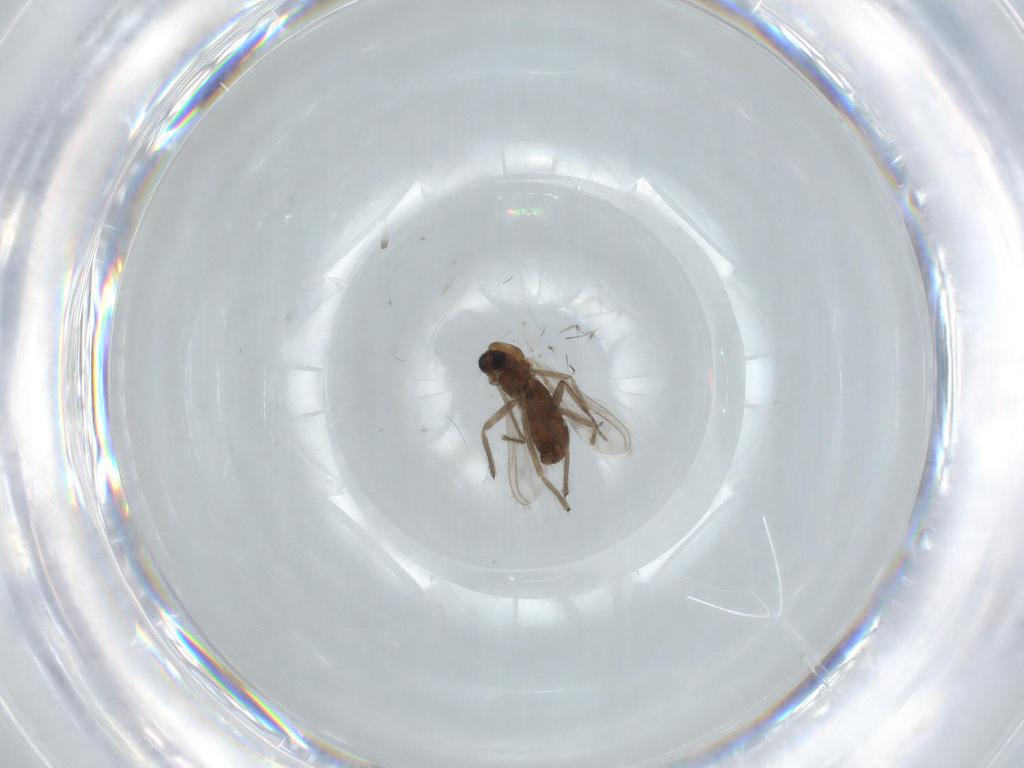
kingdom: Animalia
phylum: Arthropoda
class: Insecta
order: Diptera
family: Chironomidae
